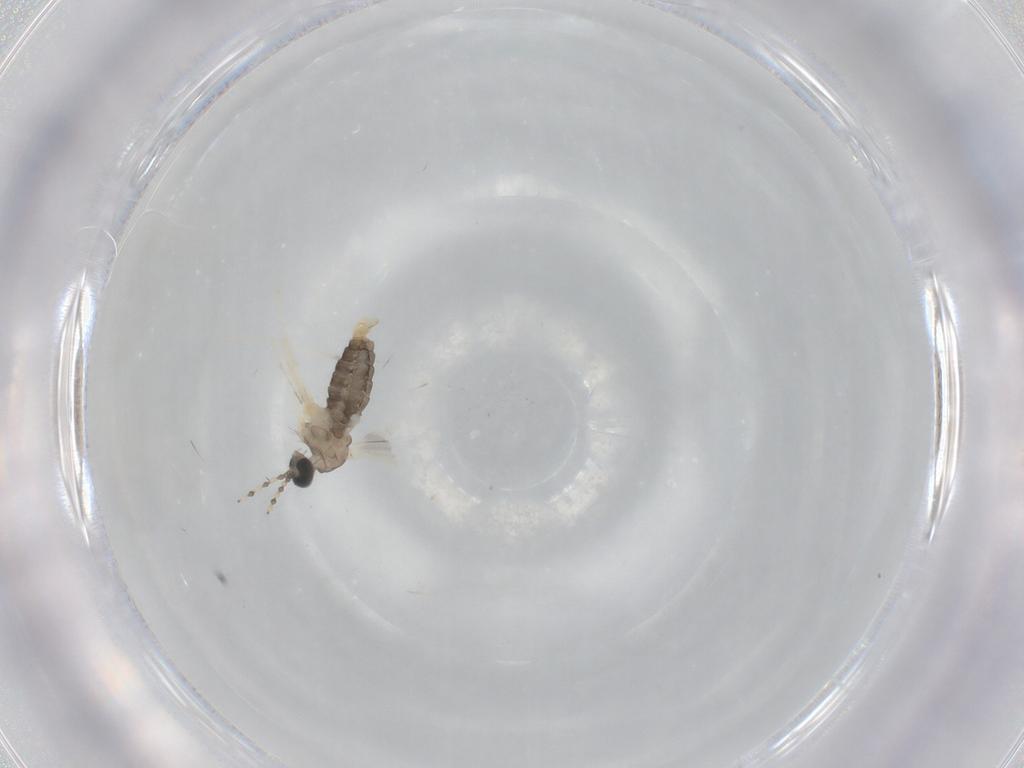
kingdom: Animalia
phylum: Arthropoda
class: Insecta
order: Diptera
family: Cecidomyiidae
